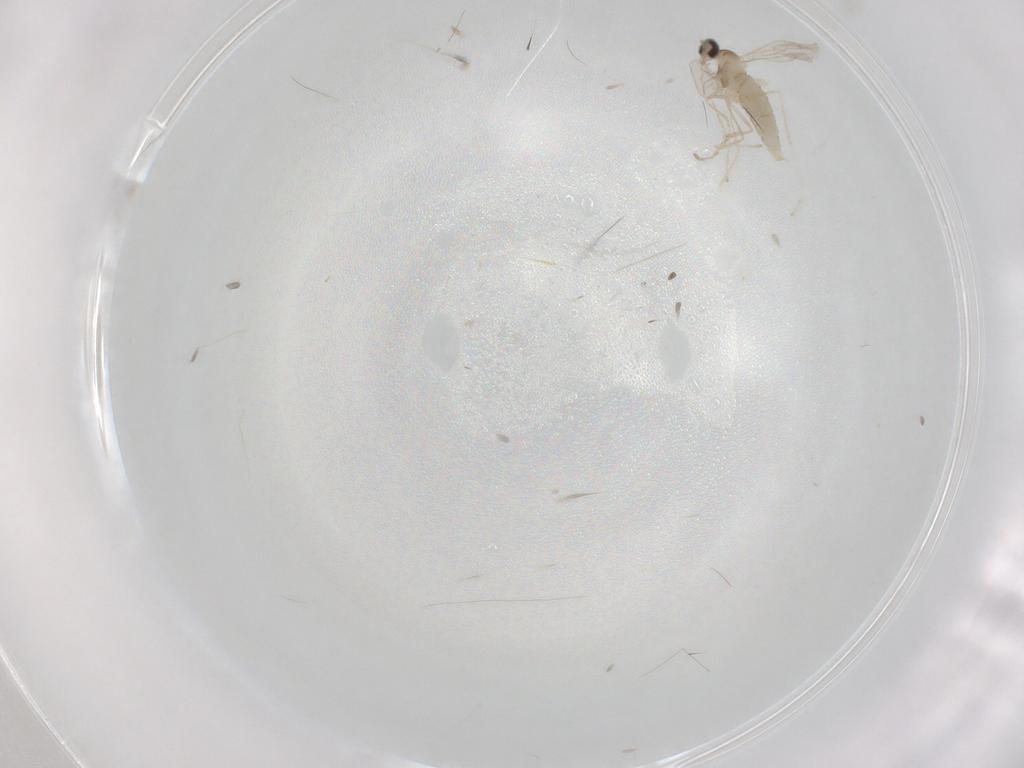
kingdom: Animalia
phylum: Arthropoda
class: Insecta
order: Diptera
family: Cecidomyiidae
